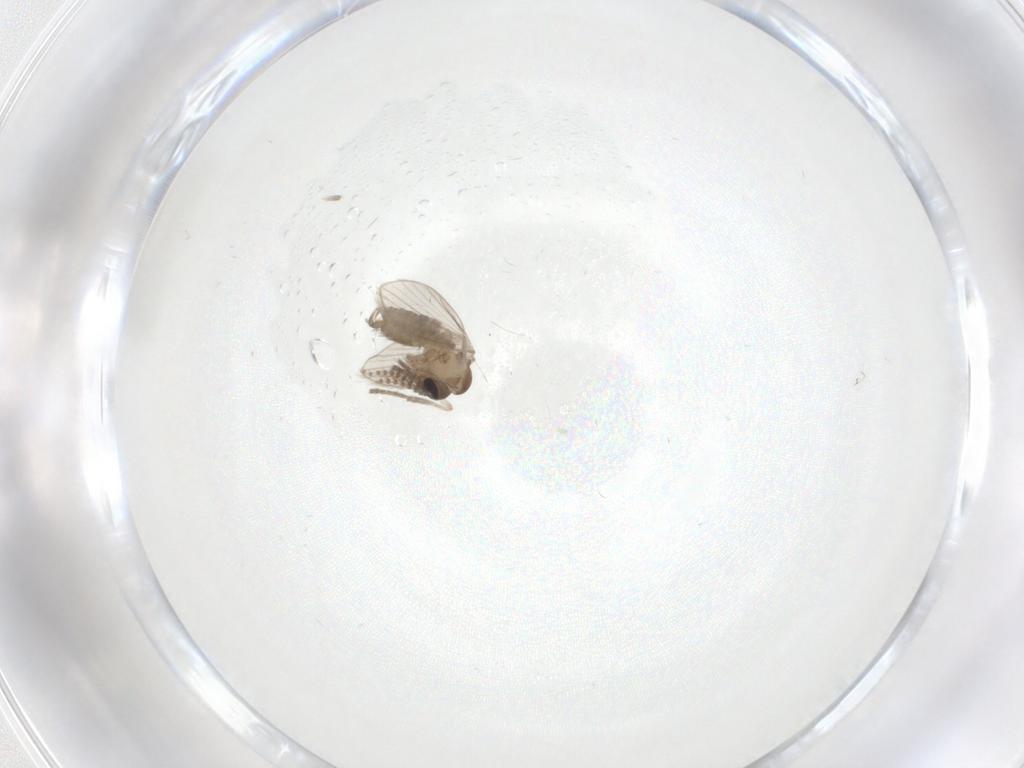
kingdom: Animalia
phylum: Arthropoda
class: Insecta
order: Diptera
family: Psychodidae
